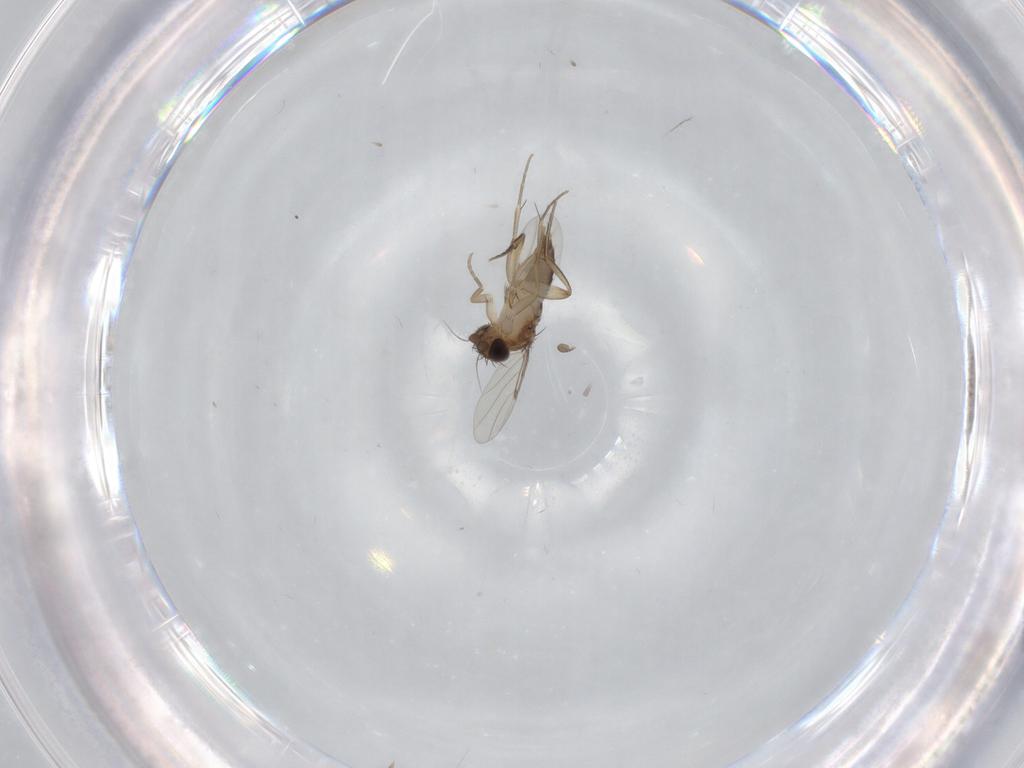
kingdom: Animalia
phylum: Arthropoda
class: Insecta
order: Diptera
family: Phoridae
